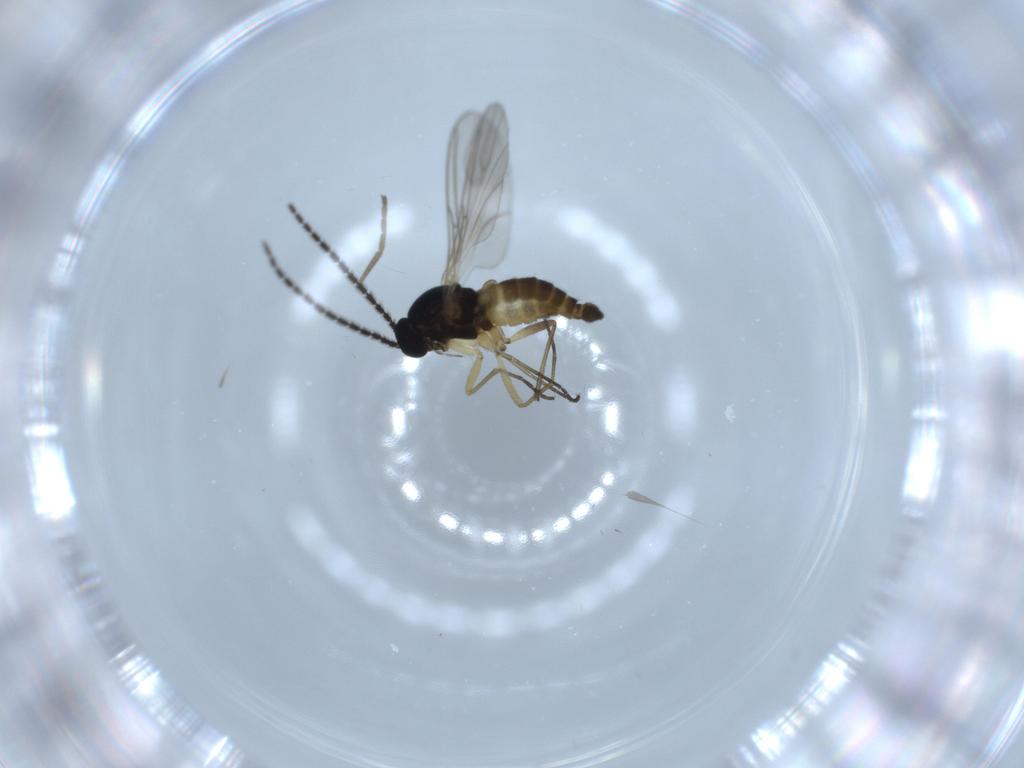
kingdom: Animalia
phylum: Arthropoda
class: Insecta
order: Diptera
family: Sciaridae
